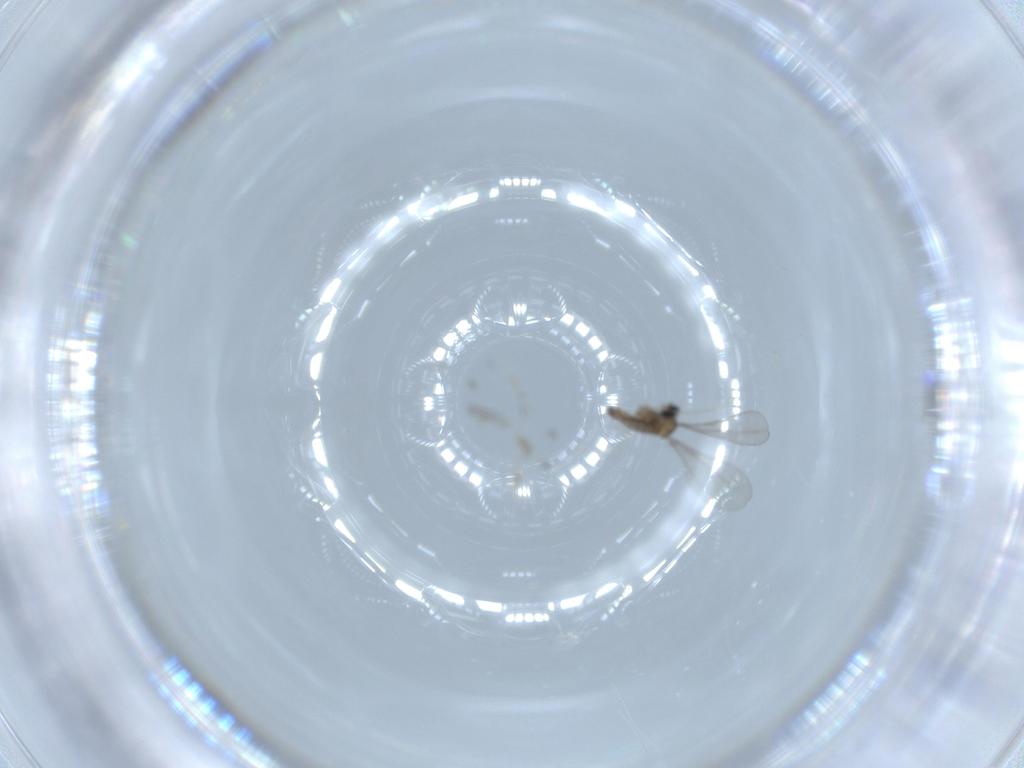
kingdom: Animalia
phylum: Arthropoda
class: Insecta
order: Diptera
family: Cecidomyiidae
